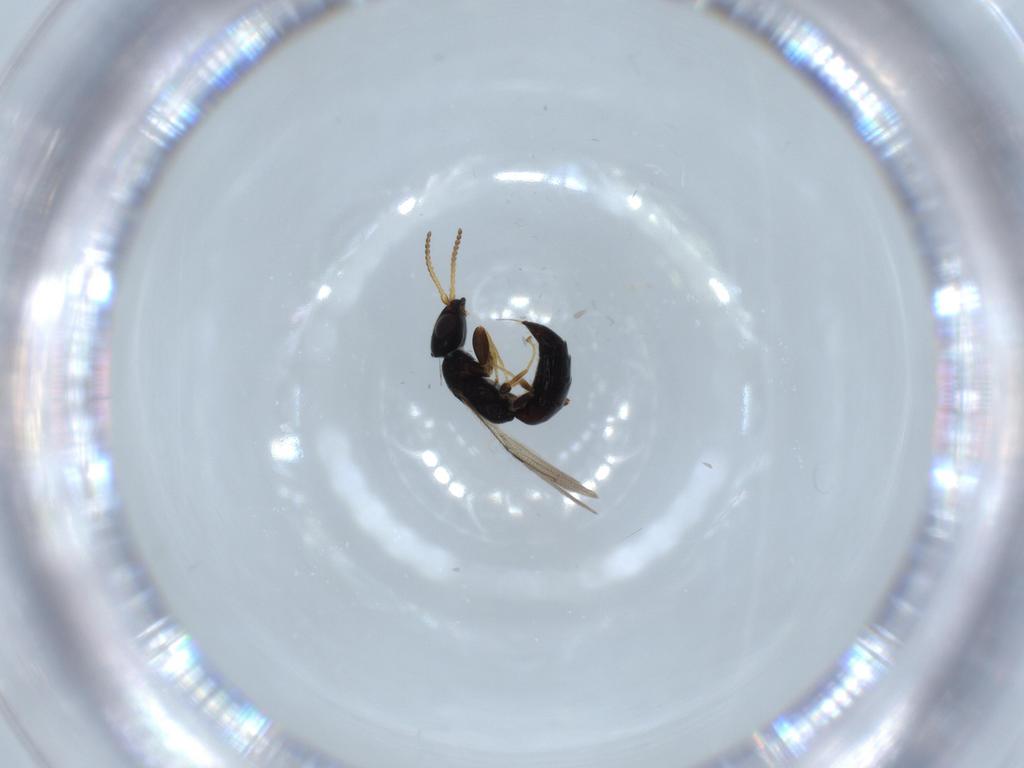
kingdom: Animalia
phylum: Arthropoda
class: Insecta
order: Hymenoptera
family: Bethylidae
